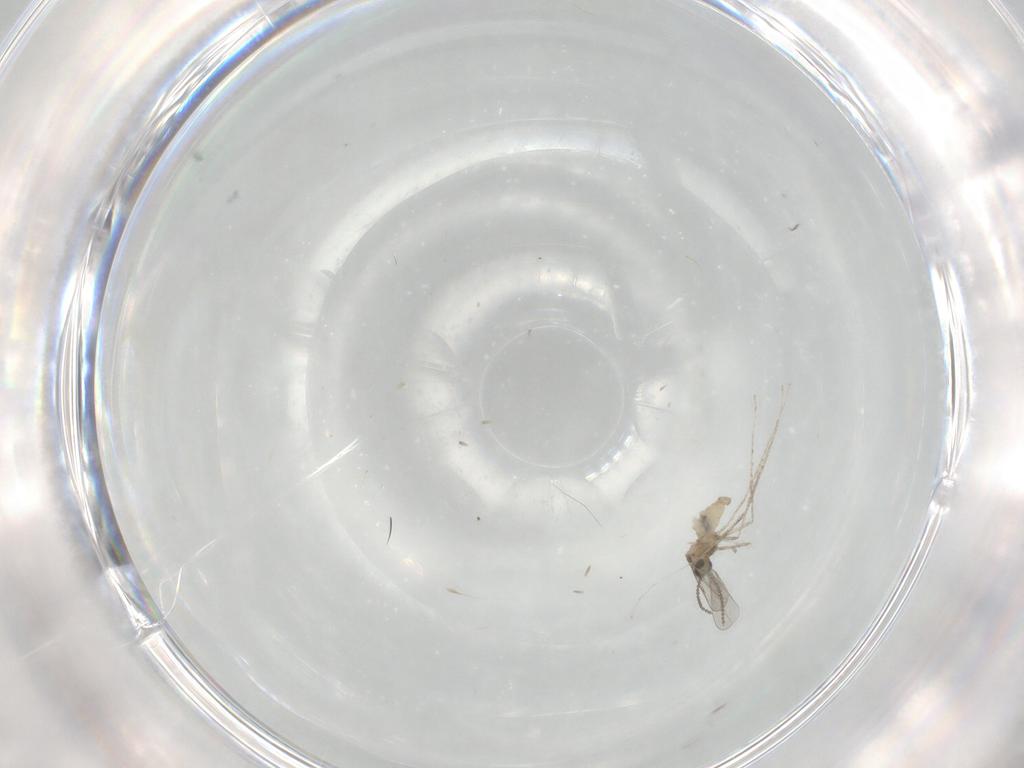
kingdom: Animalia
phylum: Arthropoda
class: Insecta
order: Diptera
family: Cecidomyiidae
